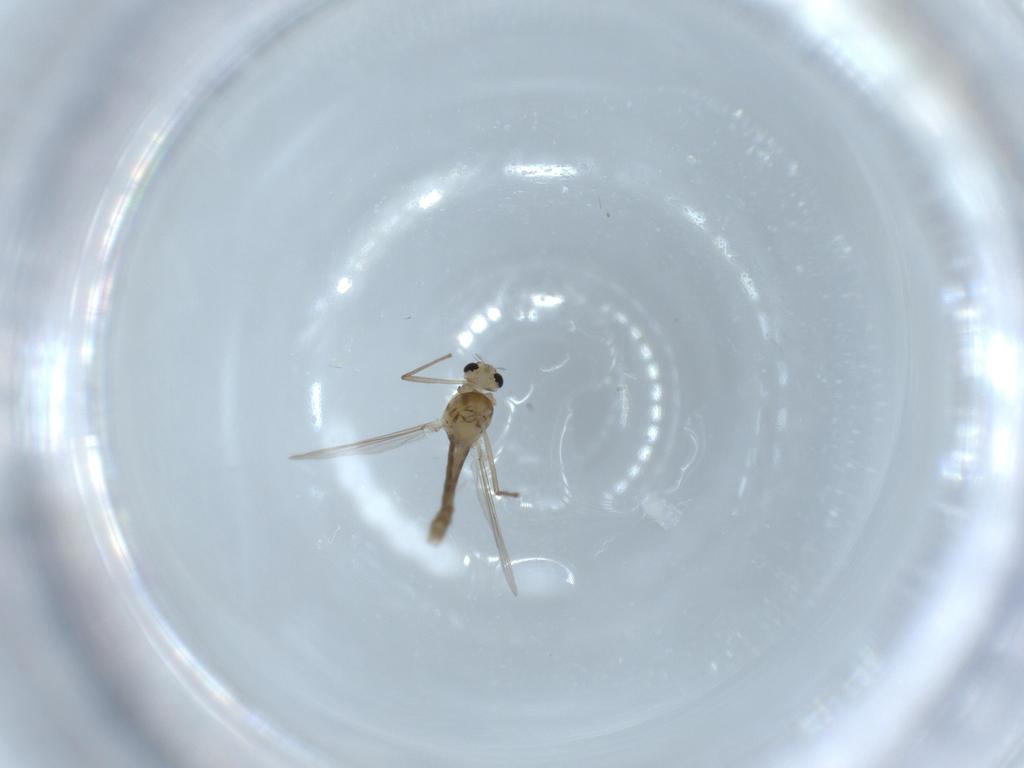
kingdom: Animalia
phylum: Arthropoda
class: Insecta
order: Diptera
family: Chironomidae
